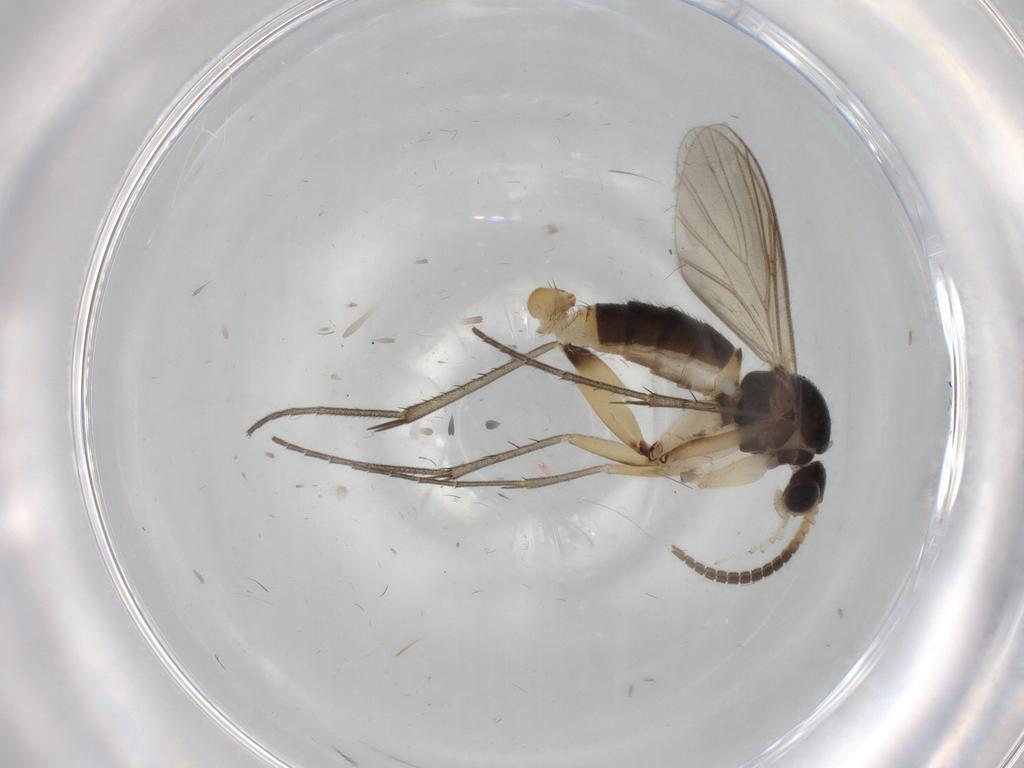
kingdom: Animalia
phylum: Arthropoda
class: Insecta
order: Diptera
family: Mycetophilidae
